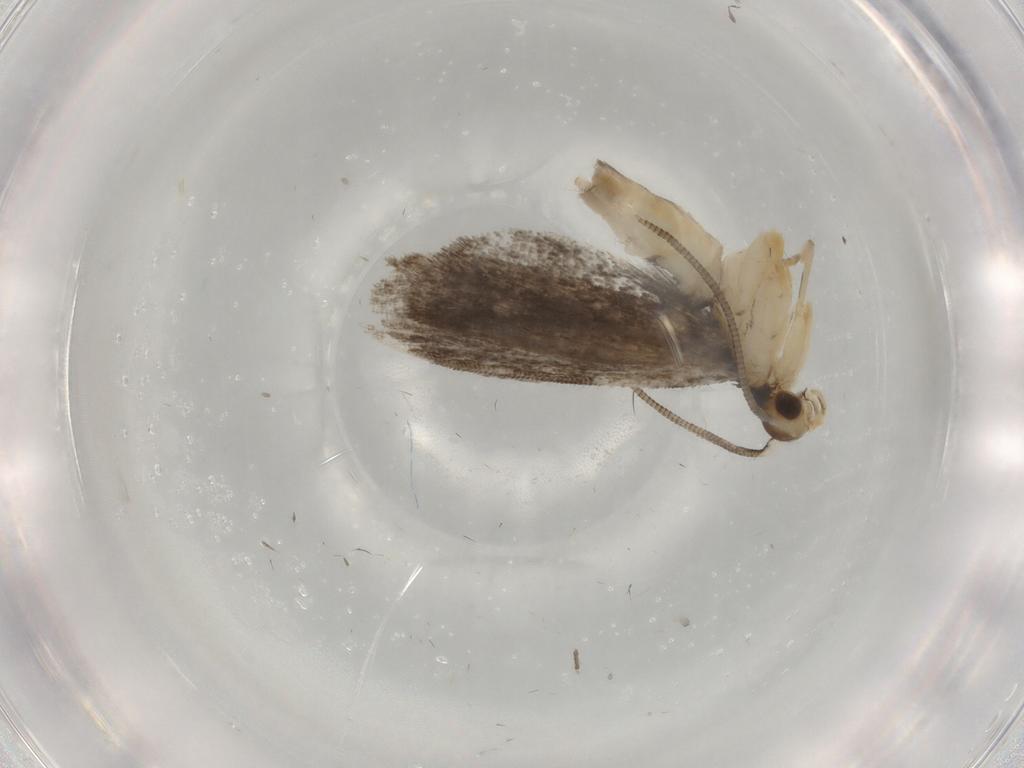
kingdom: Animalia
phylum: Arthropoda
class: Insecta
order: Lepidoptera
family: Dryadaulidae
